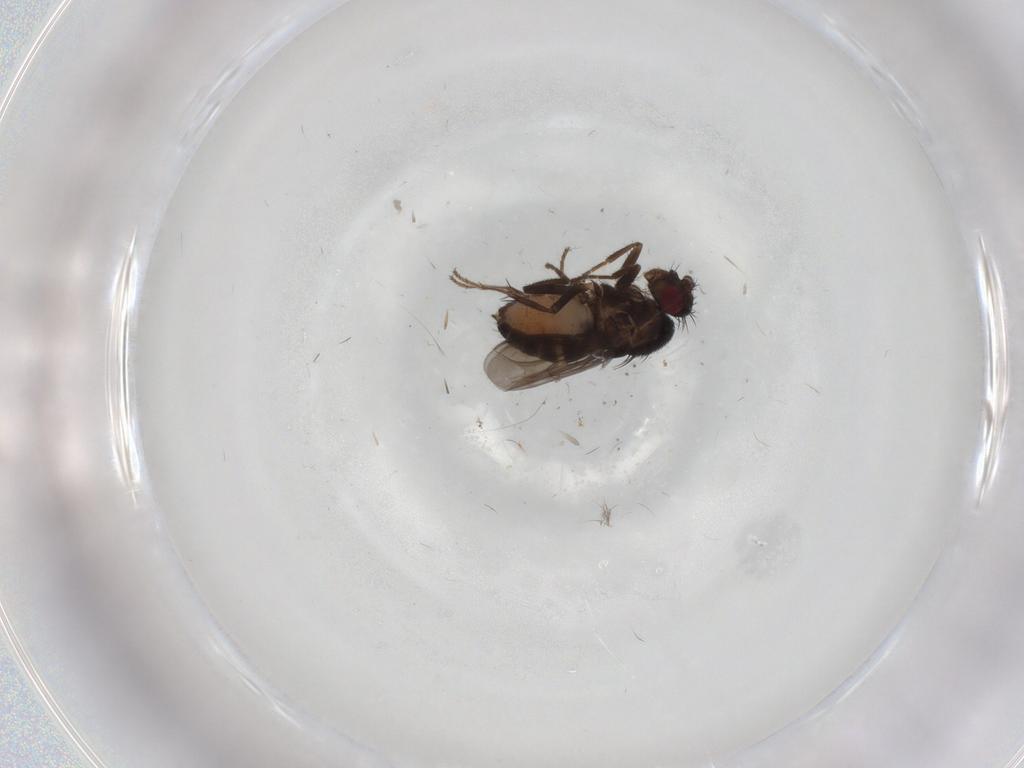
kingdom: Animalia
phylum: Arthropoda
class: Insecta
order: Diptera
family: Sphaeroceridae
